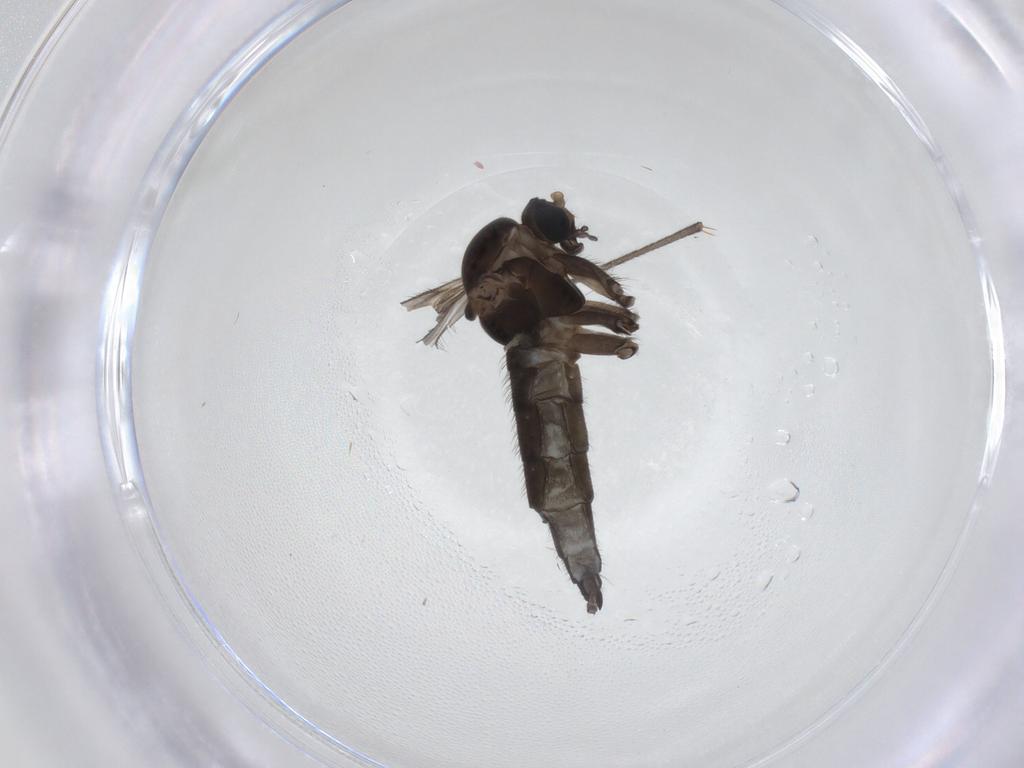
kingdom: Animalia
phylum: Arthropoda
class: Insecta
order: Diptera
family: Sciaridae
